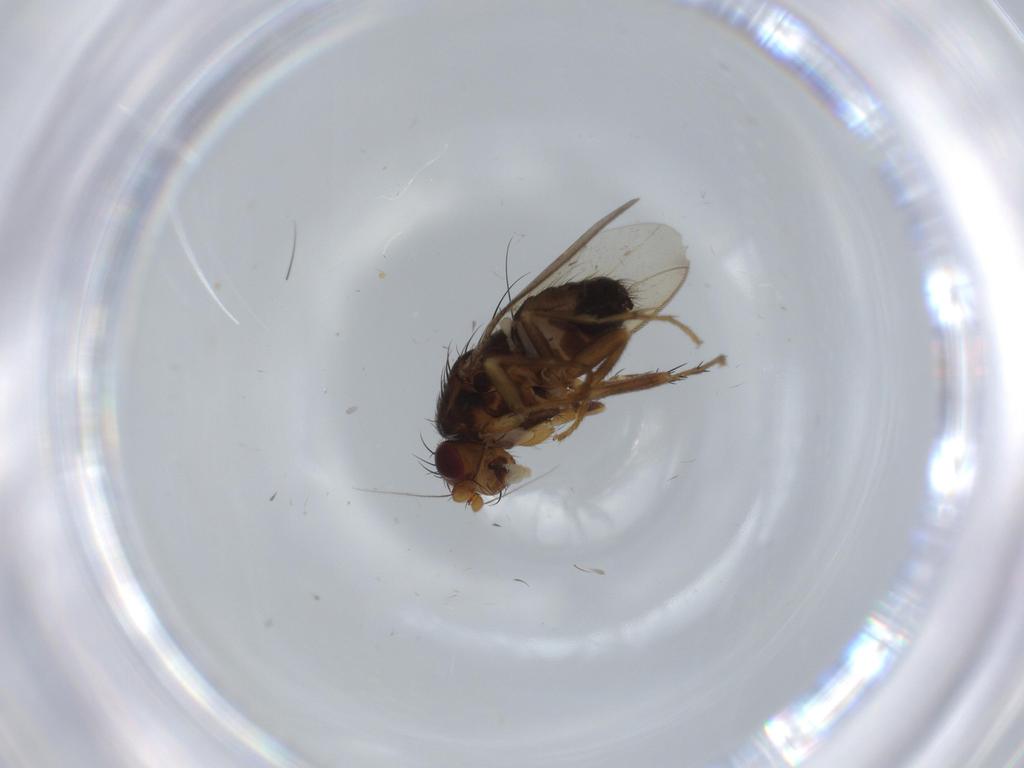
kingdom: Animalia
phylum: Arthropoda
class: Insecta
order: Diptera
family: Sphaeroceridae
